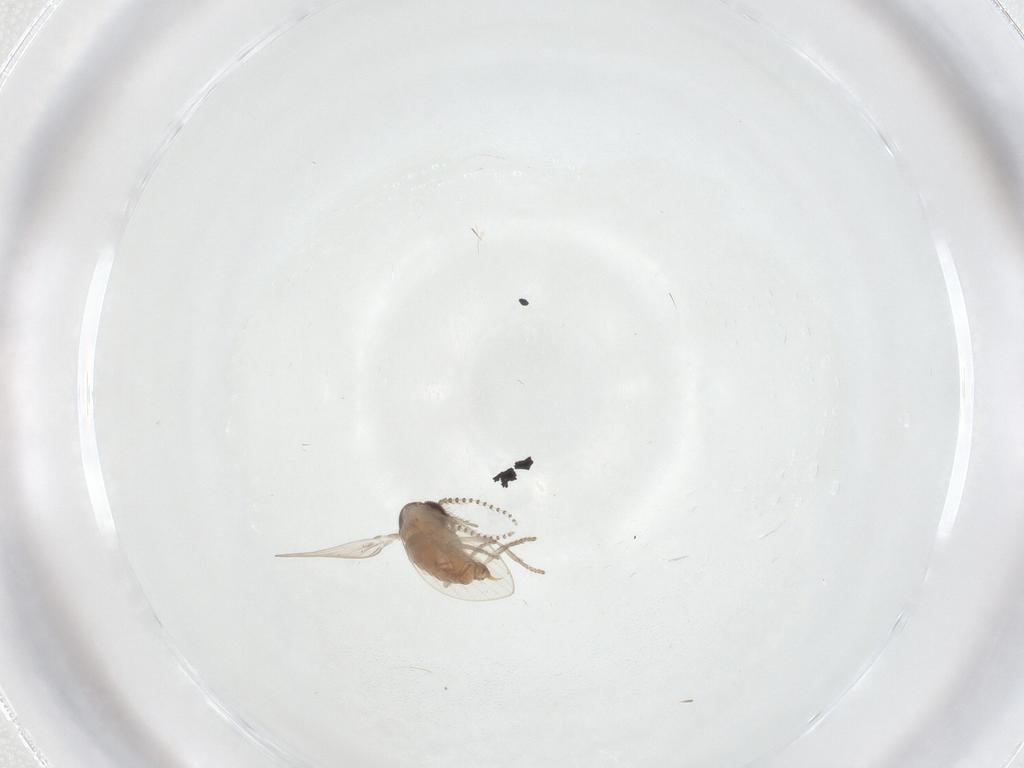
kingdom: Animalia
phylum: Arthropoda
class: Insecta
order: Diptera
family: Psychodidae
